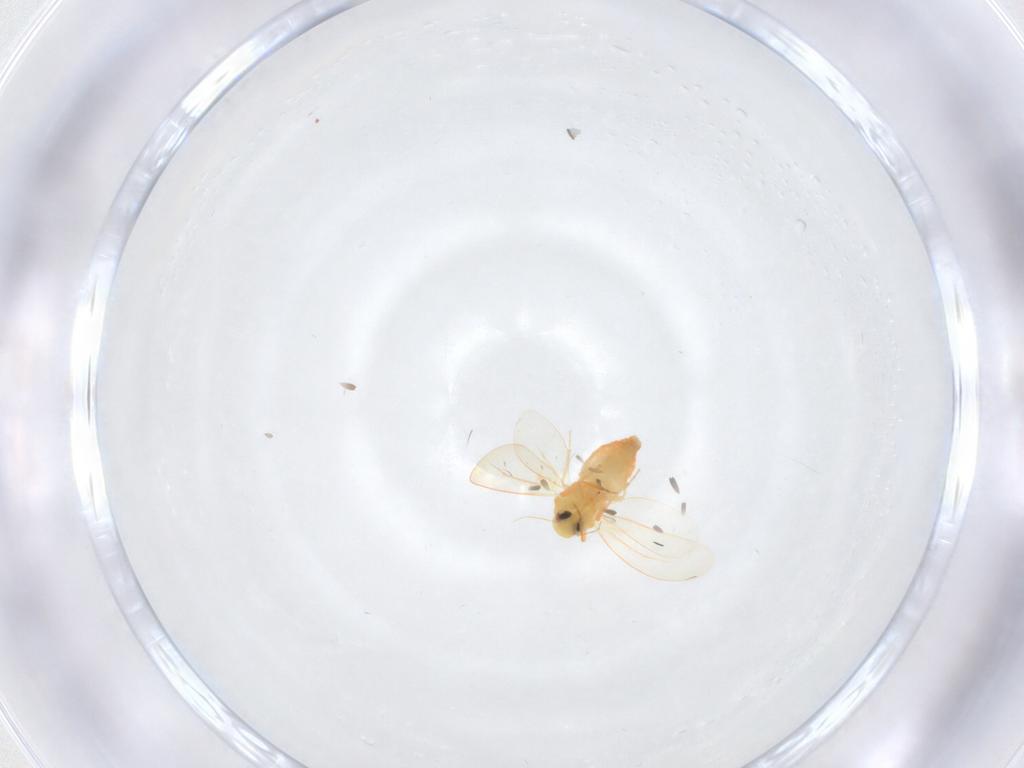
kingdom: Animalia
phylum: Arthropoda
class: Insecta
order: Hemiptera
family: Aleyrodidae
